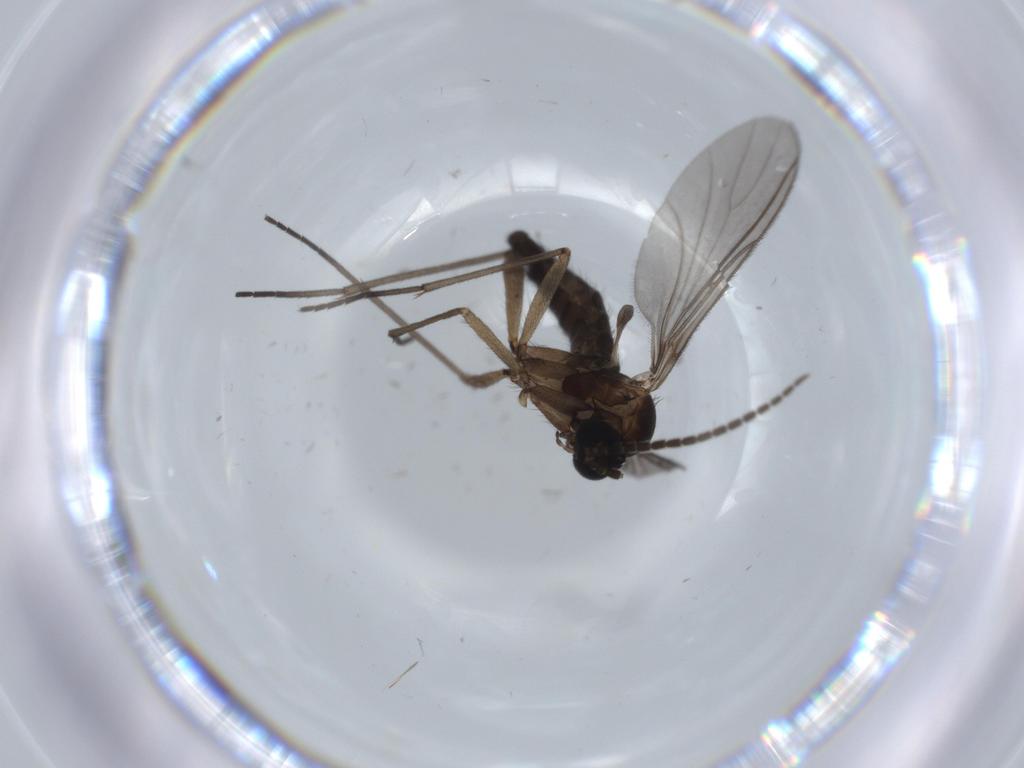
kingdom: Animalia
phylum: Arthropoda
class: Insecta
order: Diptera
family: Sciaridae
